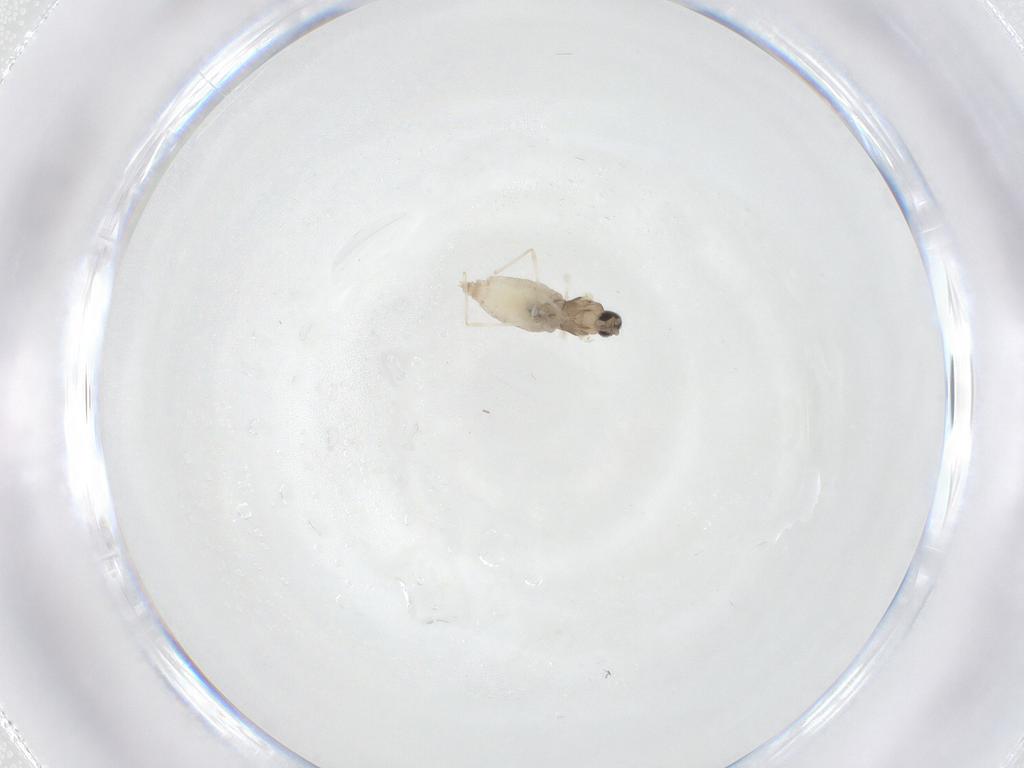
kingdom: Animalia
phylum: Arthropoda
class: Insecta
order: Diptera
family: Cecidomyiidae
